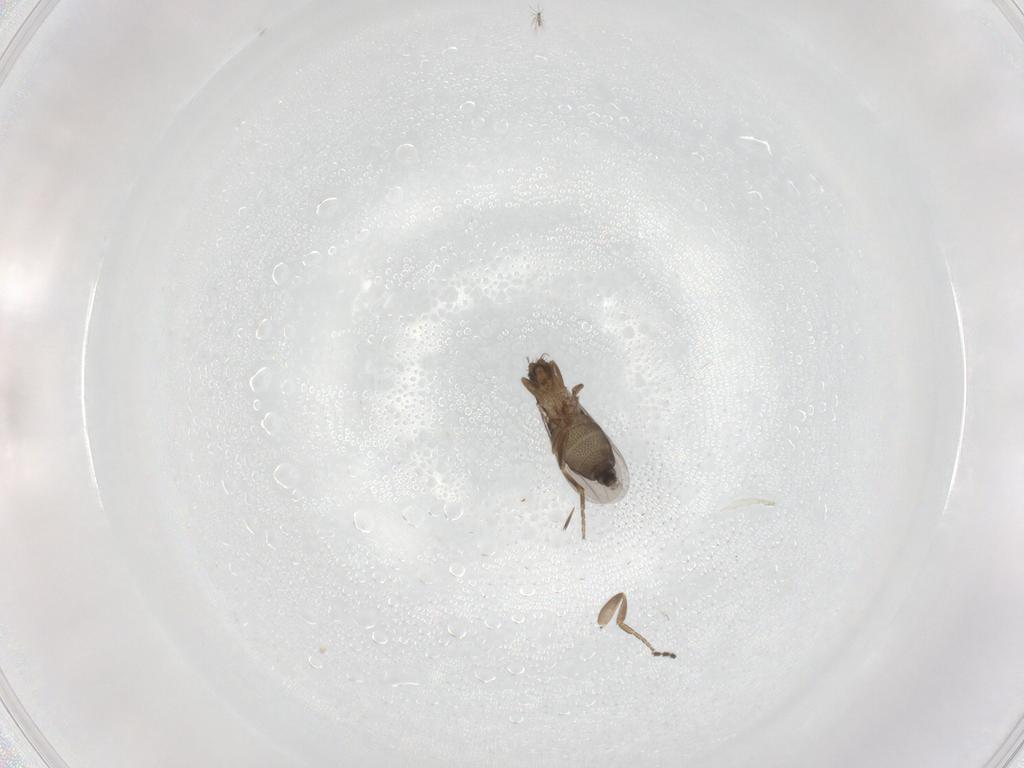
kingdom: Animalia
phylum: Arthropoda
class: Insecta
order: Diptera
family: Chironomidae
